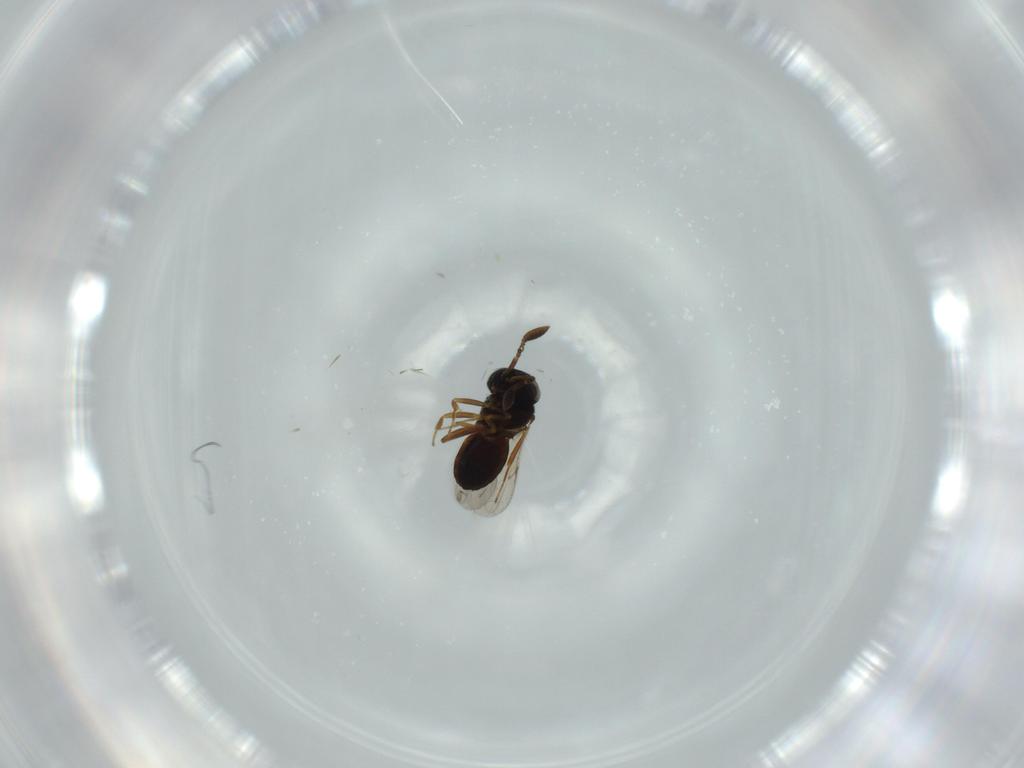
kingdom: Animalia
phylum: Arthropoda
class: Insecta
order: Hymenoptera
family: Scelionidae
